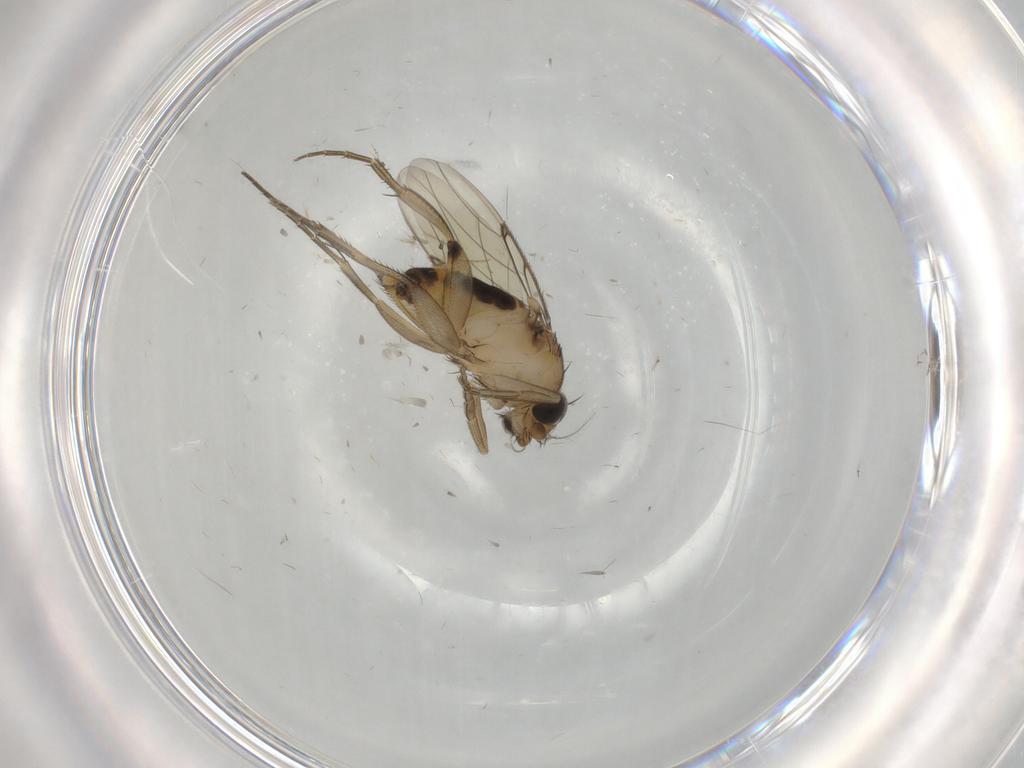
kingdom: Animalia
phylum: Arthropoda
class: Insecta
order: Diptera
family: Phoridae
